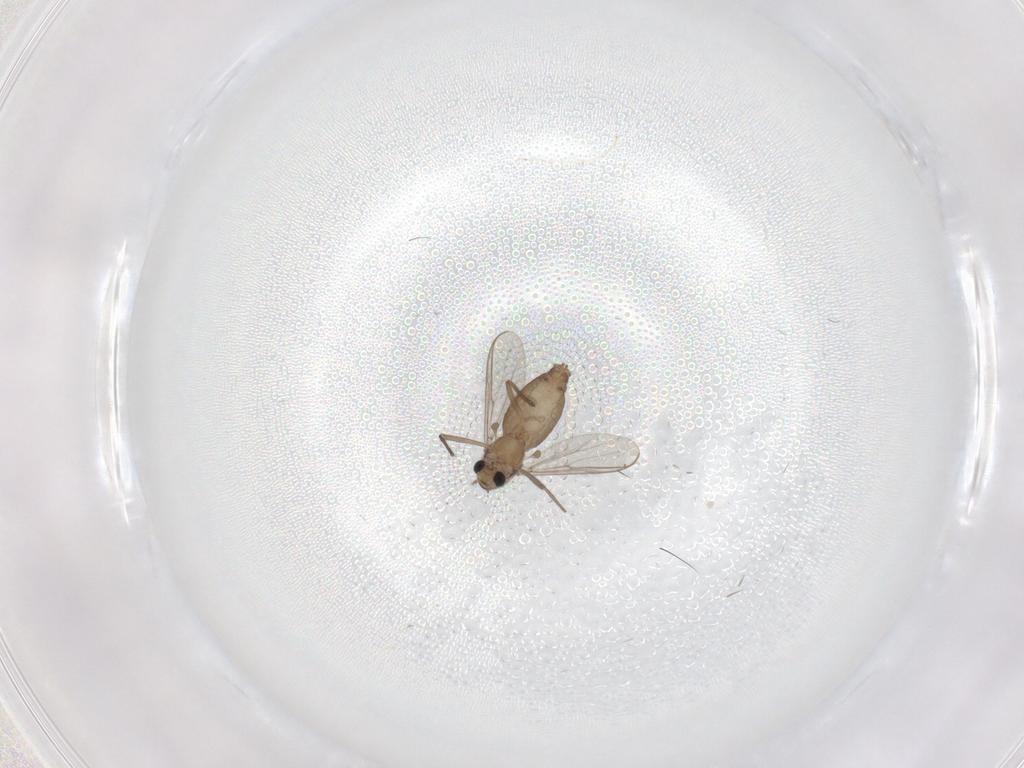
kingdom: Animalia
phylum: Arthropoda
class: Insecta
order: Diptera
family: Chironomidae
